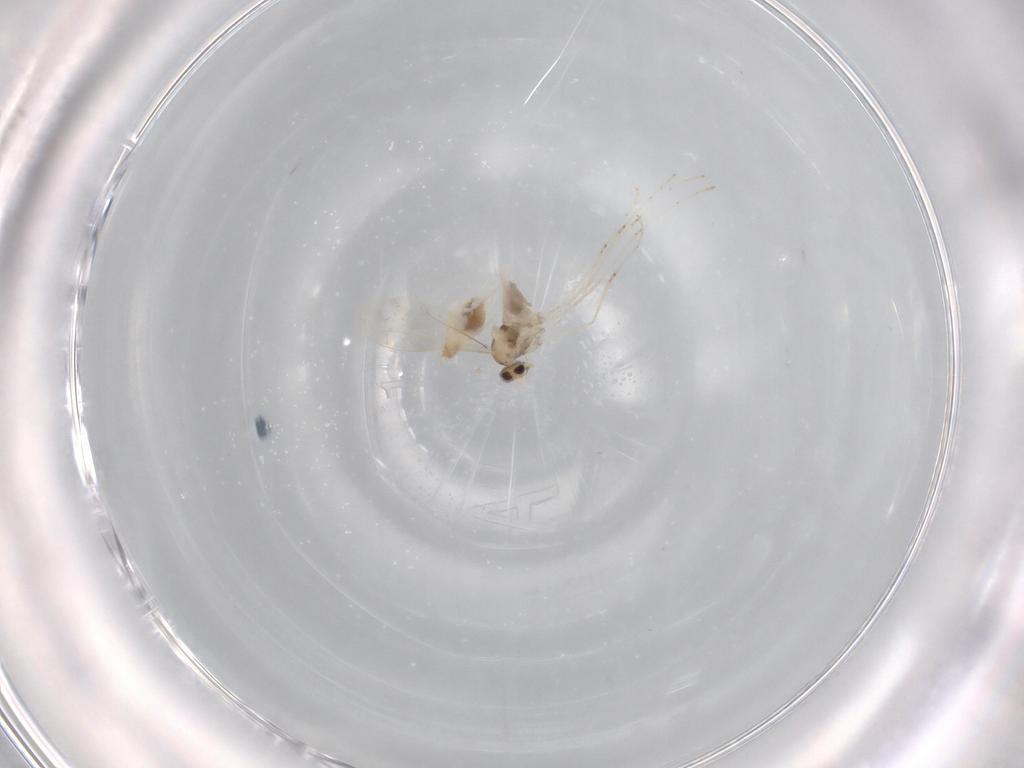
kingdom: Animalia
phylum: Arthropoda
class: Insecta
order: Diptera
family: Cecidomyiidae
